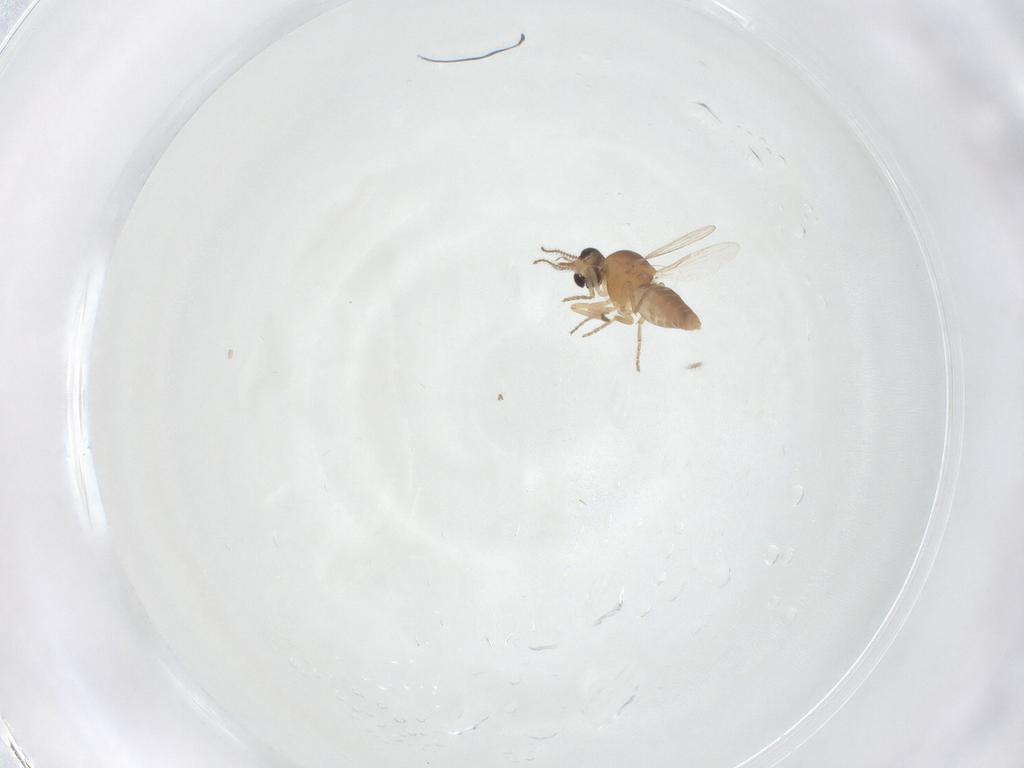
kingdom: Animalia
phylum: Arthropoda
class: Insecta
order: Diptera
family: Ceratopogonidae
